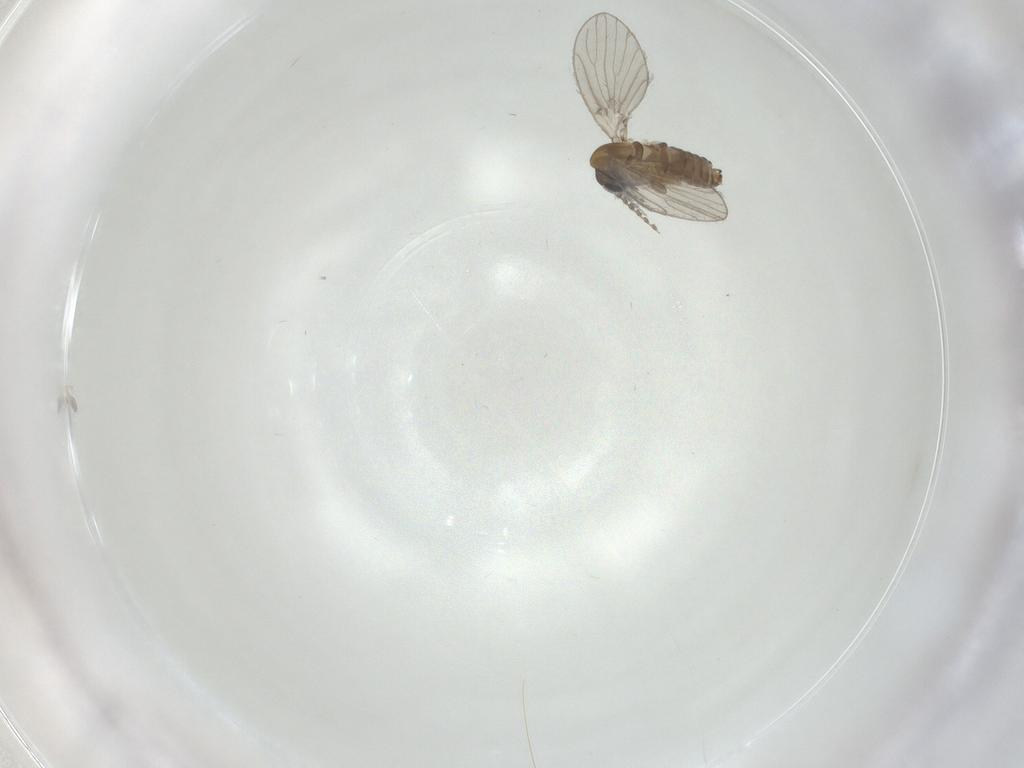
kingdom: Animalia
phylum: Arthropoda
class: Insecta
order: Diptera
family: Psychodidae
